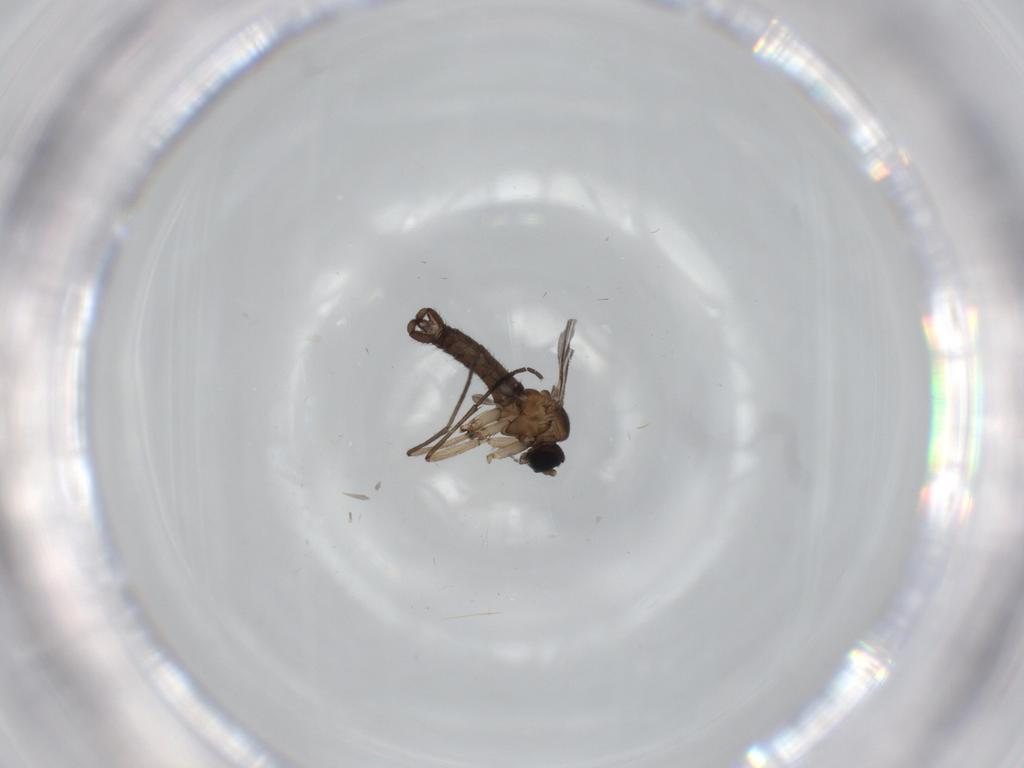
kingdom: Animalia
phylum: Arthropoda
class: Insecta
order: Diptera
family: Sciaridae
